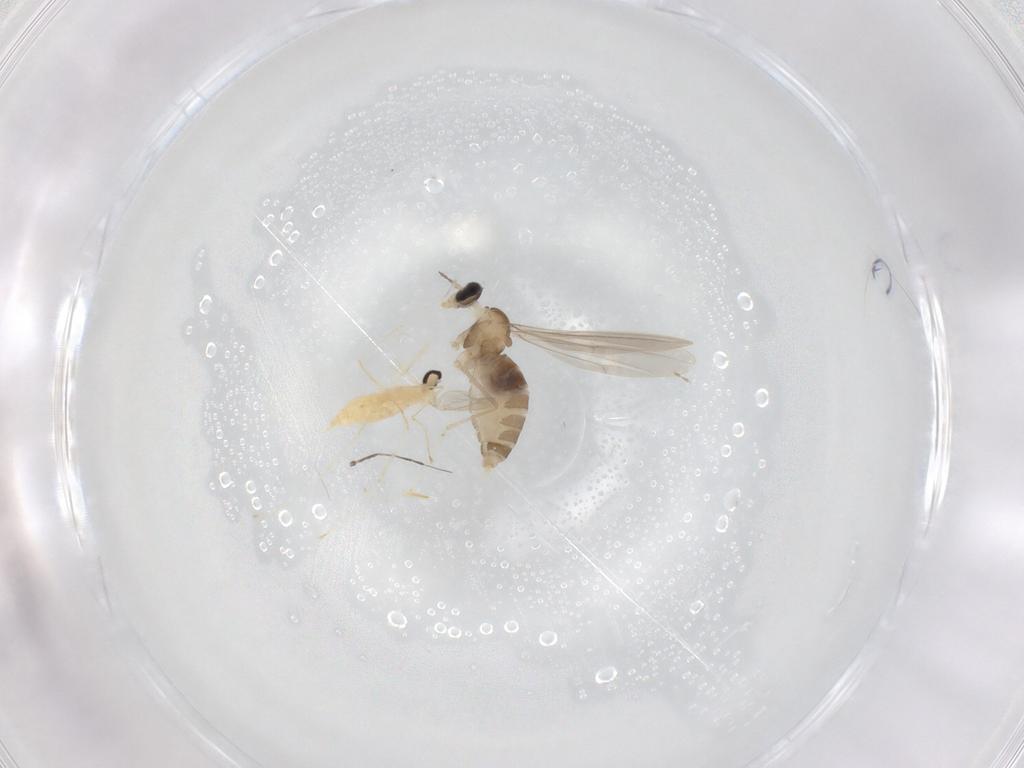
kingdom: Animalia
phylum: Arthropoda
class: Insecta
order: Diptera
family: Cecidomyiidae
